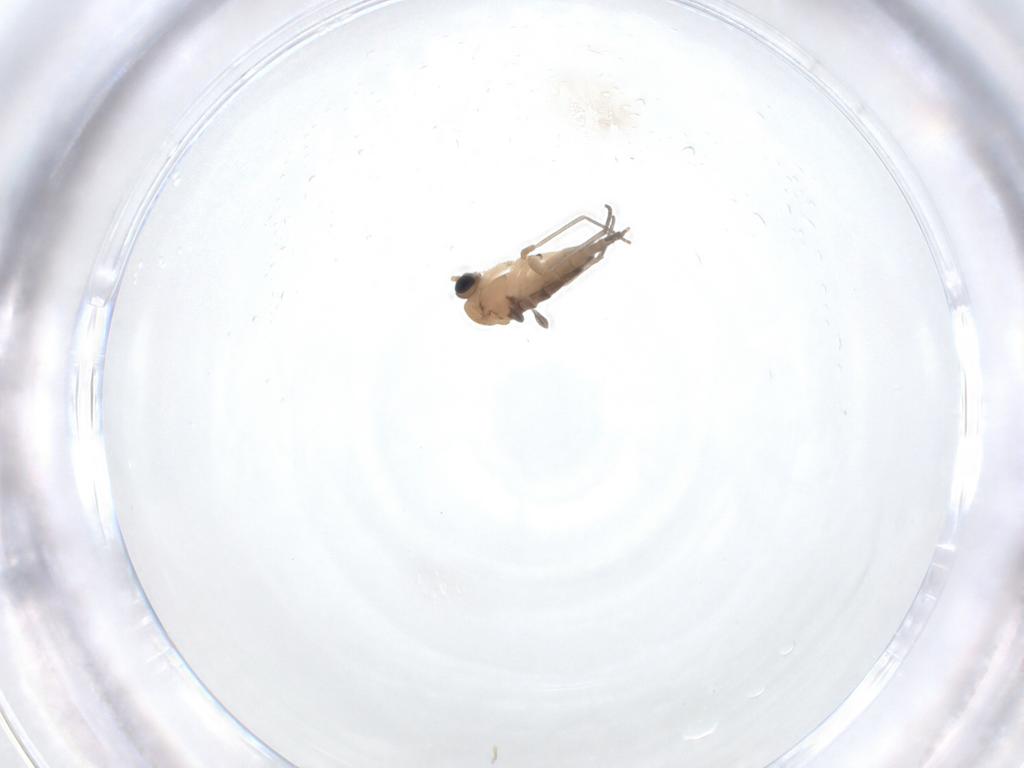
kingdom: Animalia
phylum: Arthropoda
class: Insecta
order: Diptera
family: Sciaridae
